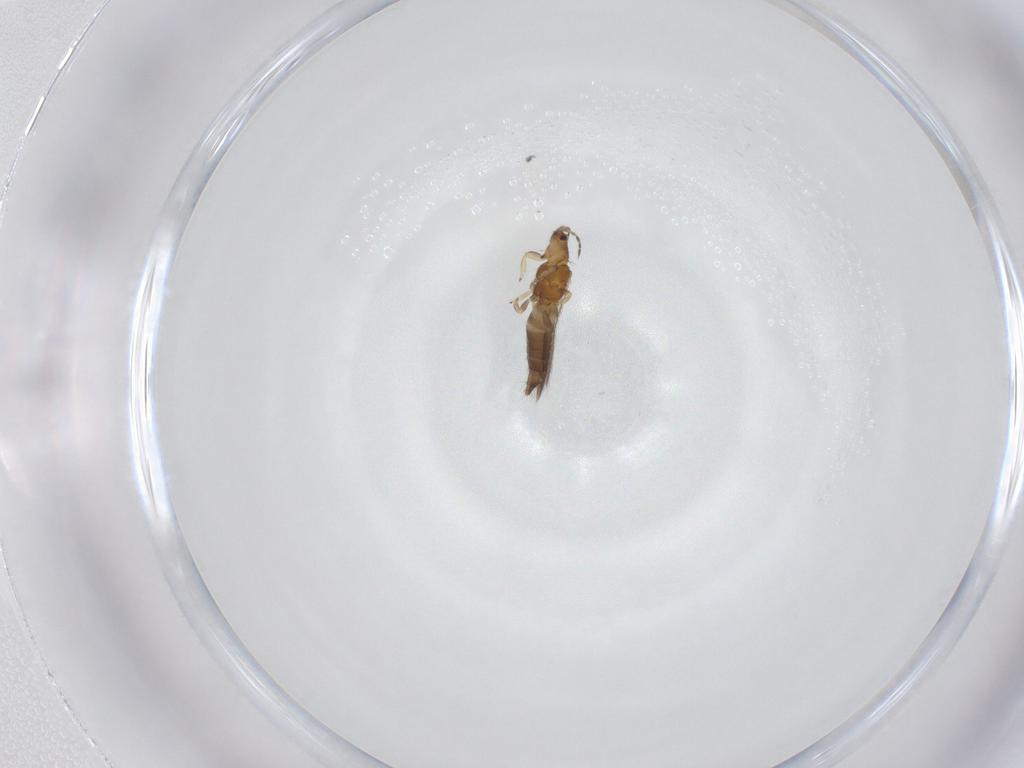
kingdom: Animalia
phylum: Arthropoda
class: Insecta
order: Thysanoptera
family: Thripidae
